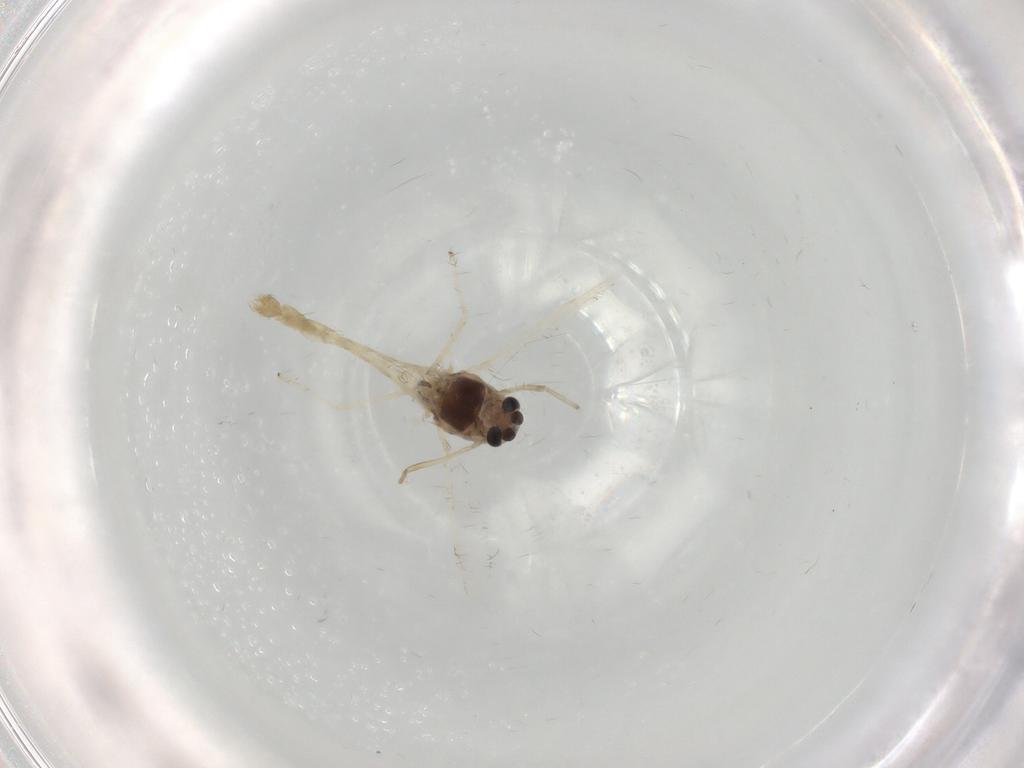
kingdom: Animalia
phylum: Arthropoda
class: Insecta
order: Diptera
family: Chironomidae
